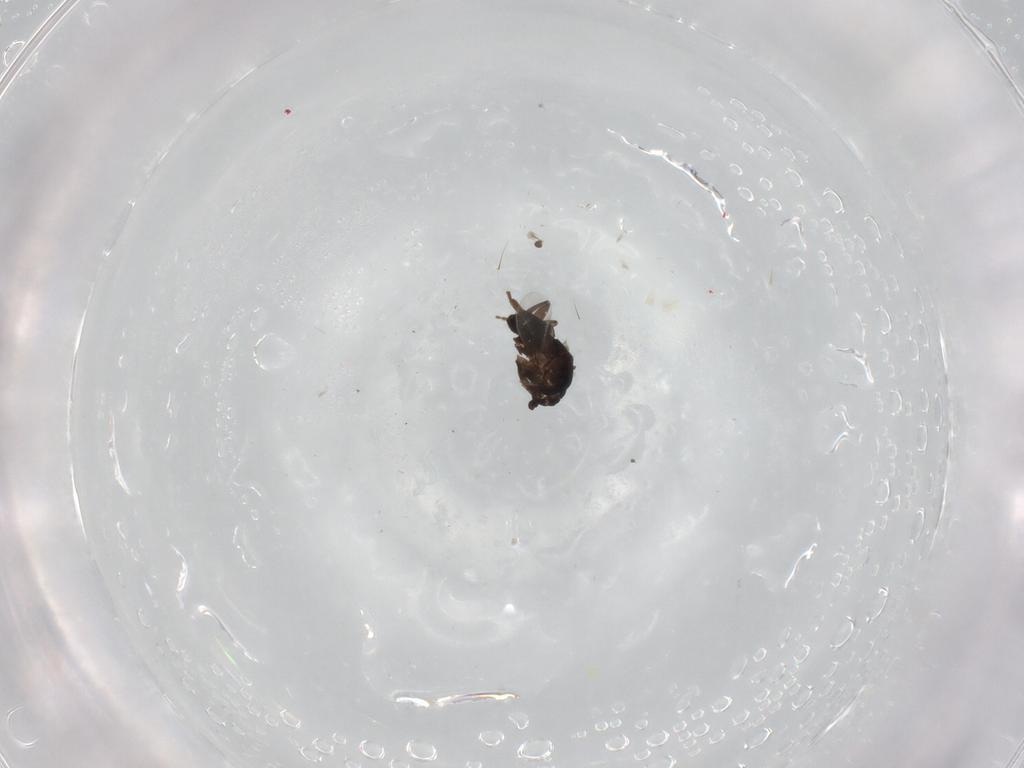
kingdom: Animalia
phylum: Arthropoda
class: Insecta
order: Diptera
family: Sphaeroceridae
